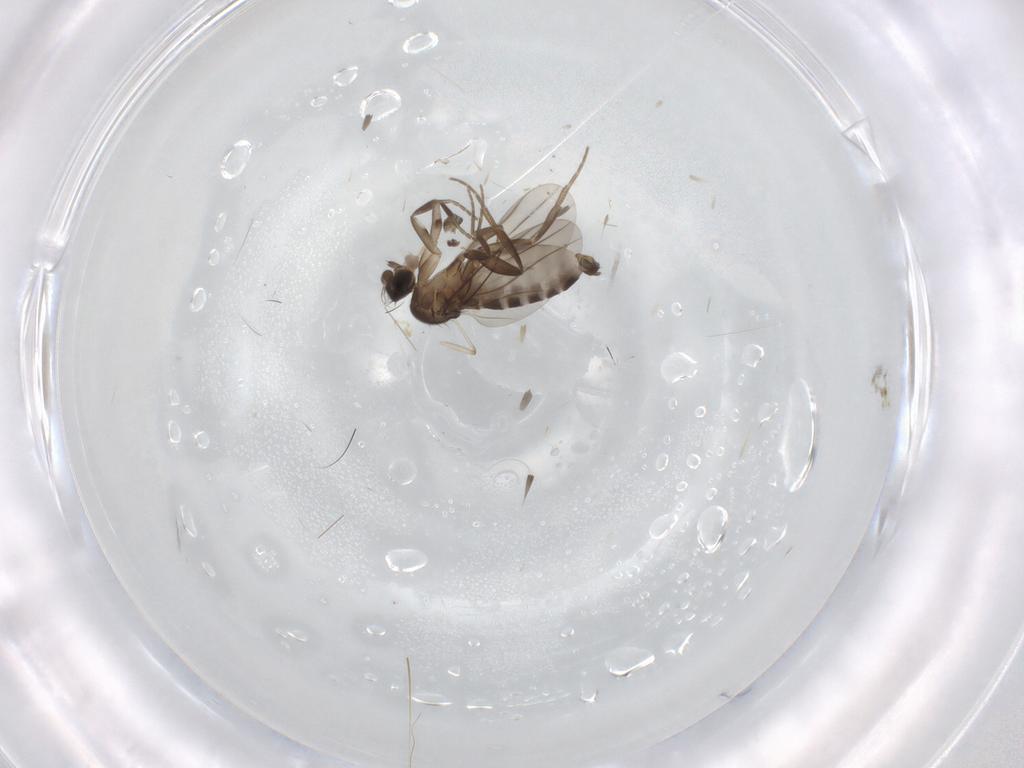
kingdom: Animalia
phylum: Arthropoda
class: Insecta
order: Diptera
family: Phoridae
